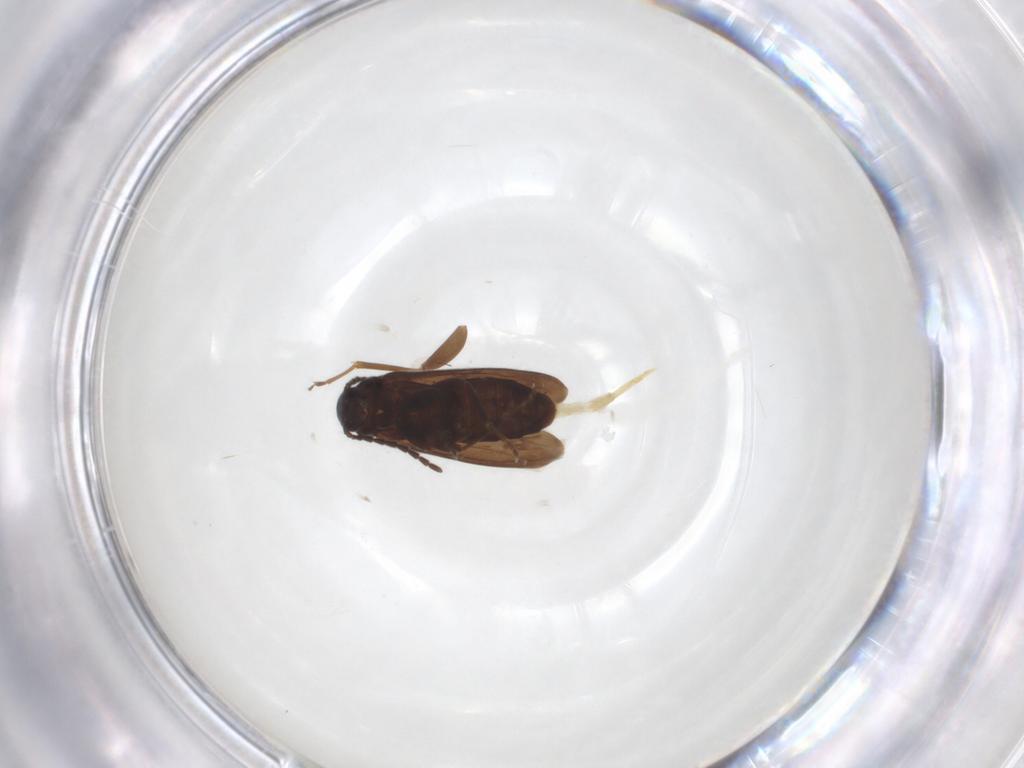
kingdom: Animalia
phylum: Arthropoda
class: Insecta
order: Coleoptera
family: Scraptiidae
